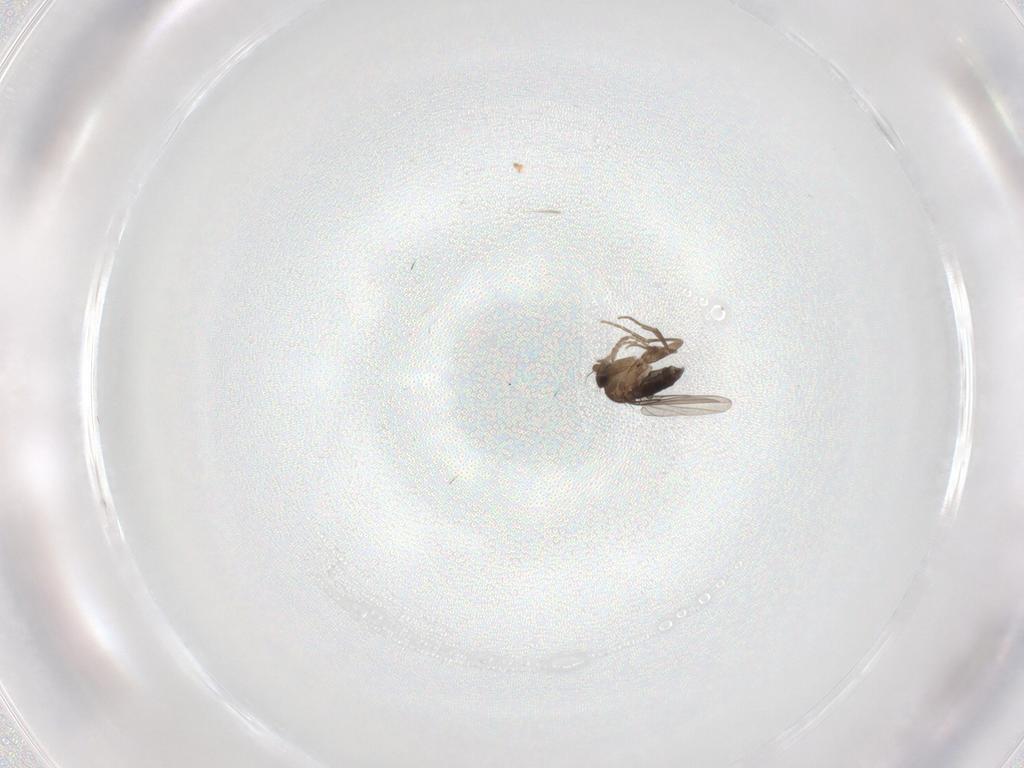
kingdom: Animalia
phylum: Arthropoda
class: Insecta
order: Diptera
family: Phoridae
